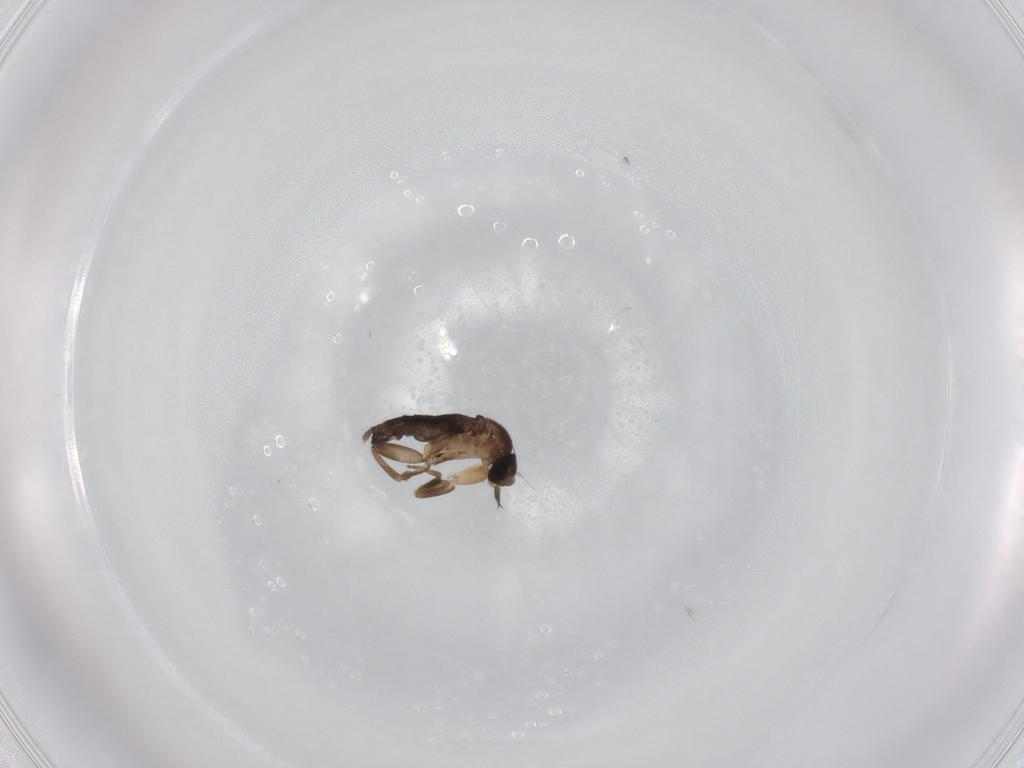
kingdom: Animalia
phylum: Arthropoda
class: Insecta
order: Diptera
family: Phoridae
